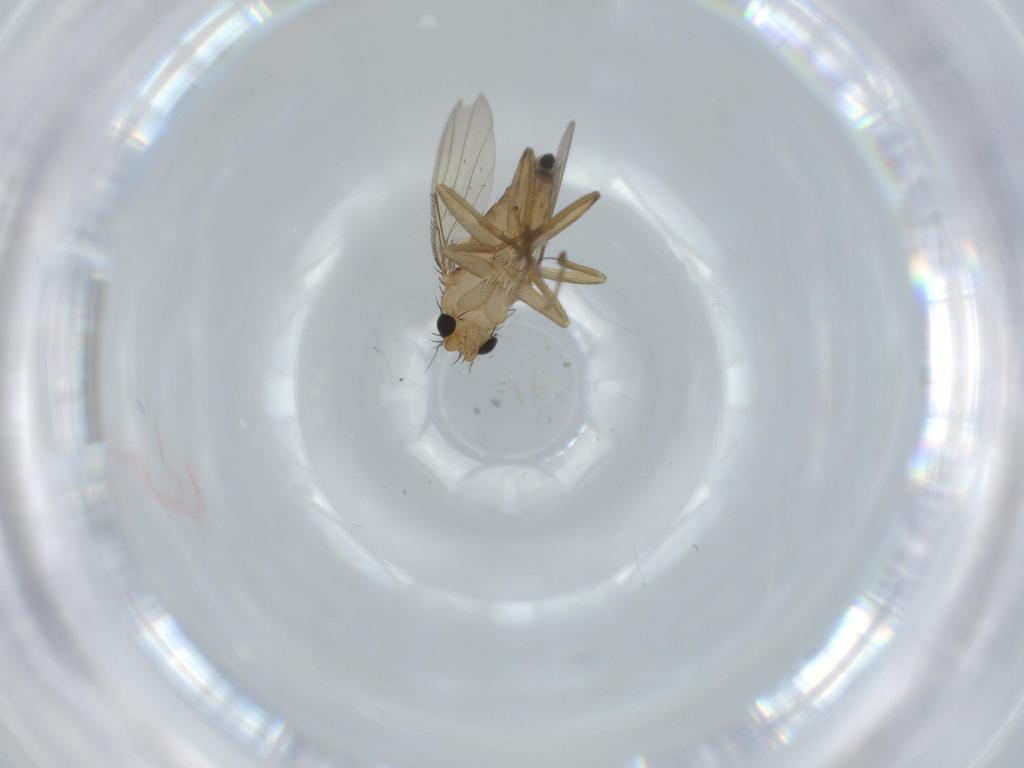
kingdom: Animalia
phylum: Arthropoda
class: Insecta
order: Diptera
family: Phoridae
